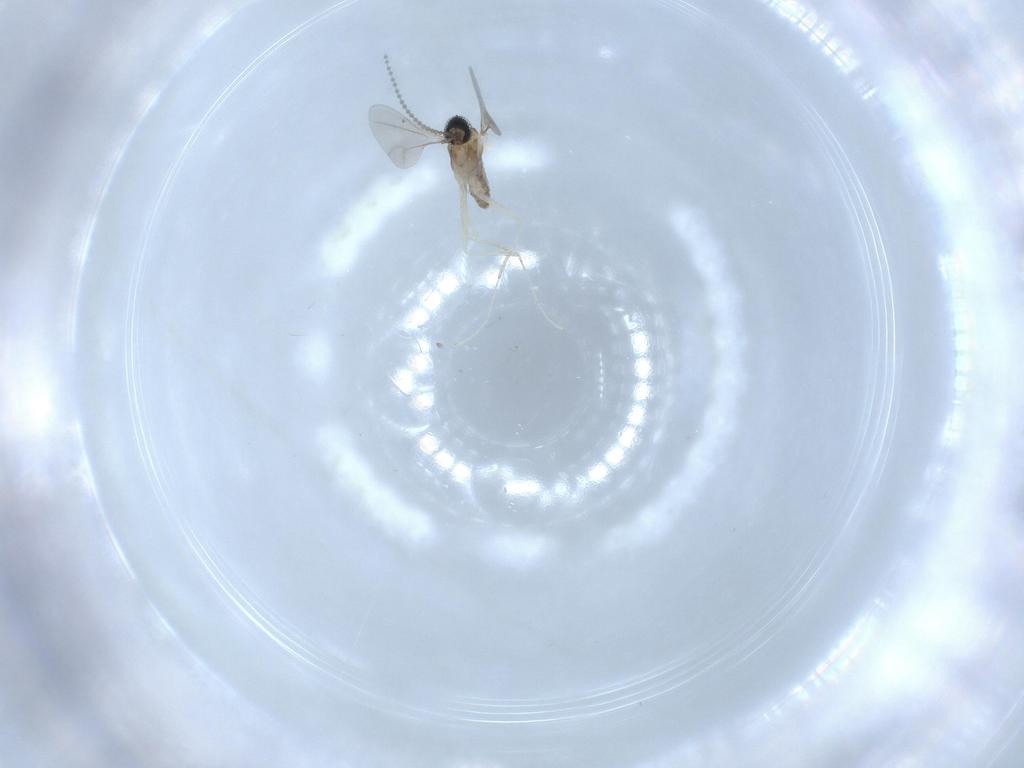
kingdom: Animalia
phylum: Arthropoda
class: Insecta
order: Diptera
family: Cecidomyiidae
